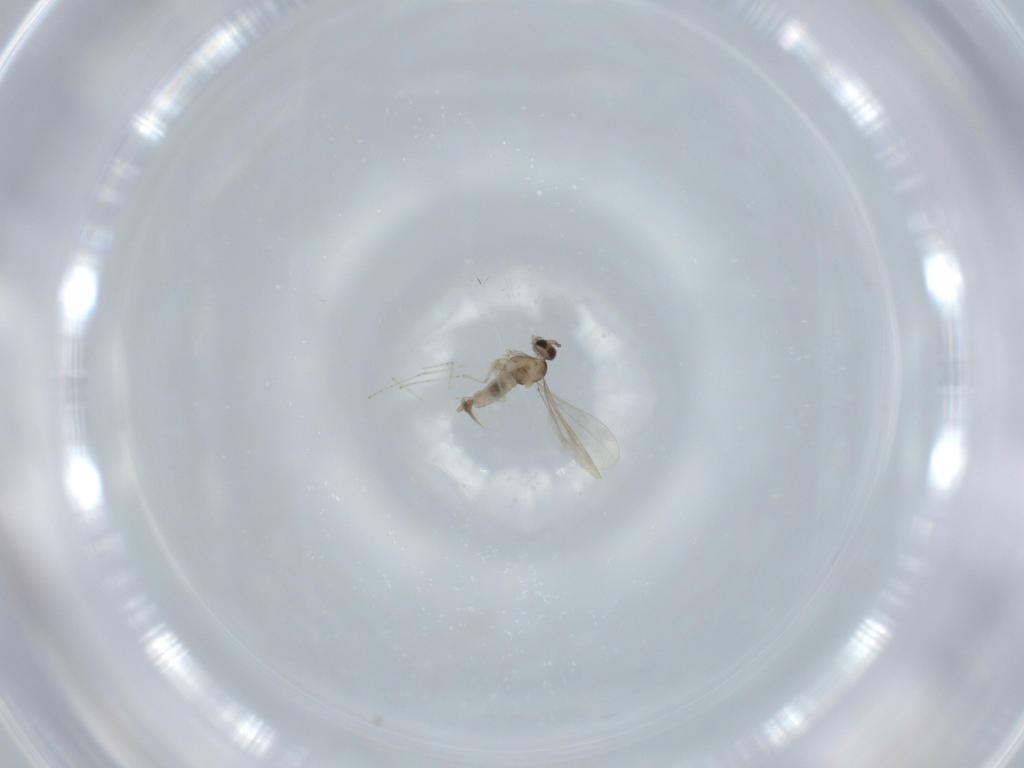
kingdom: Animalia
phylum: Arthropoda
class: Insecta
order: Diptera
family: Cecidomyiidae
